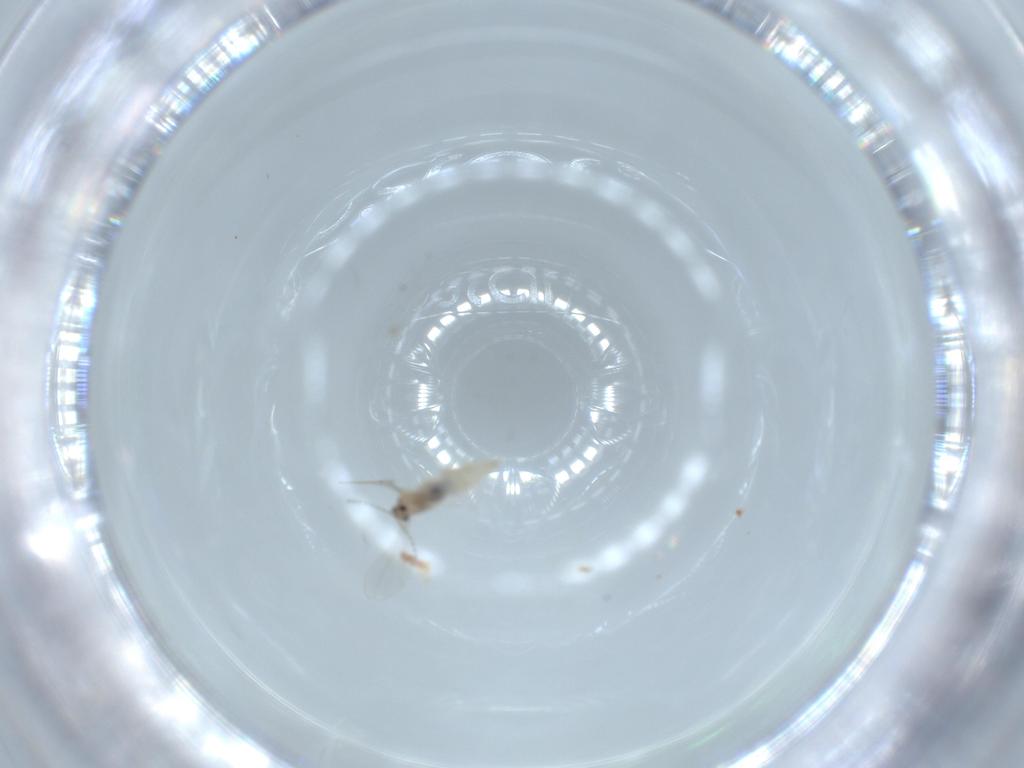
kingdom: Animalia
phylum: Arthropoda
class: Insecta
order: Diptera
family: Cecidomyiidae
